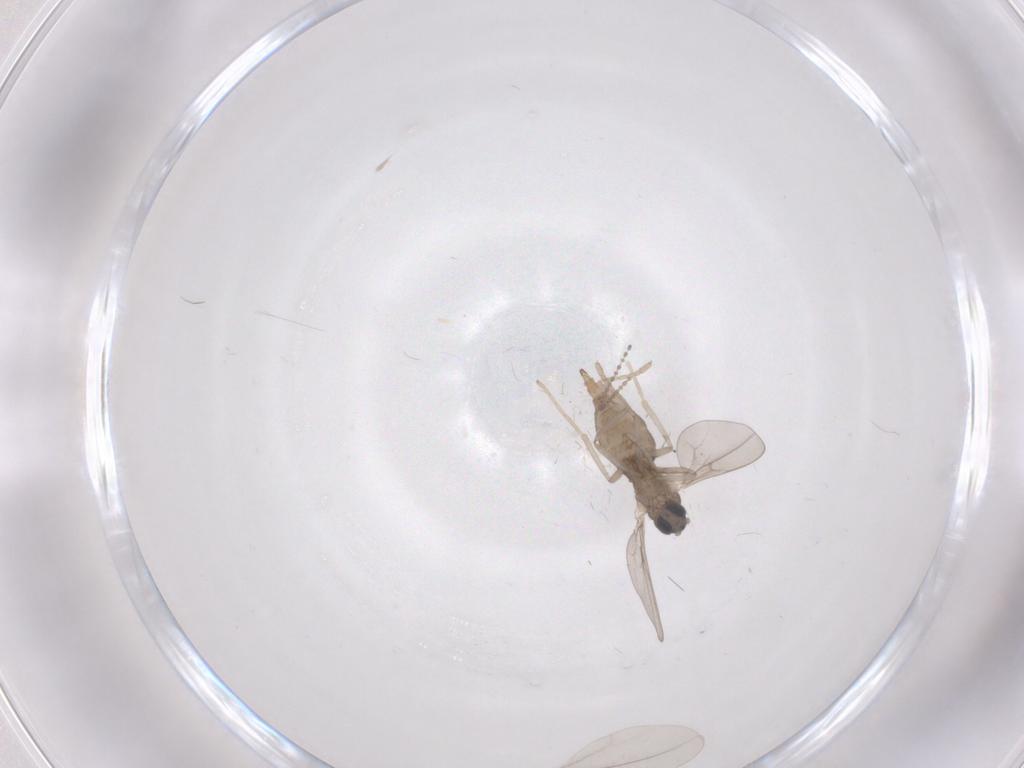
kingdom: Animalia
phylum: Arthropoda
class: Insecta
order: Diptera
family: Cecidomyiidae
